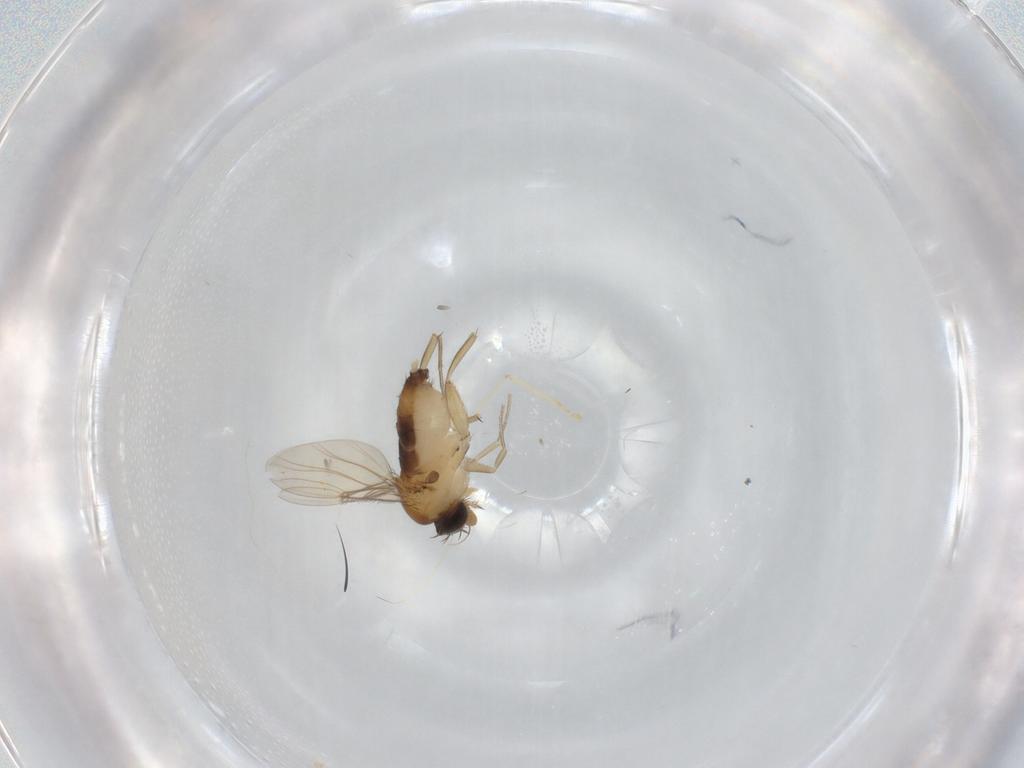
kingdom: Animalia
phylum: Arthropoda
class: Insecta
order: Diptera
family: Phoridae
